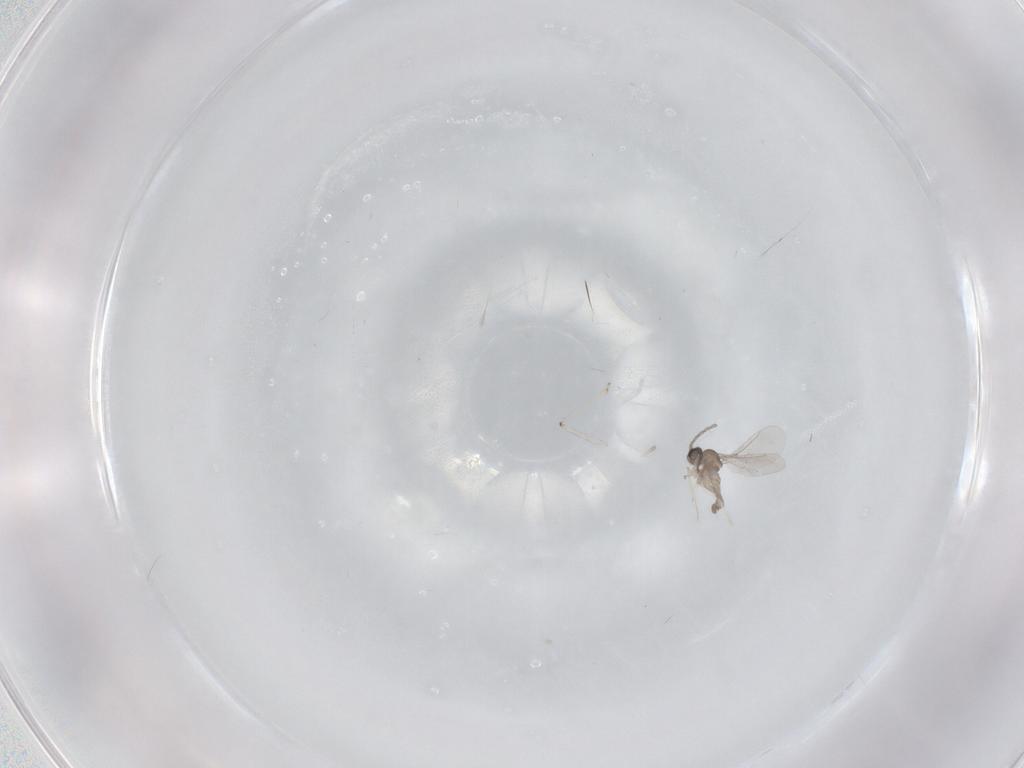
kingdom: Animalia
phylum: Arthropoda
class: Insecta
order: Diptera
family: Cecidomyiidae
